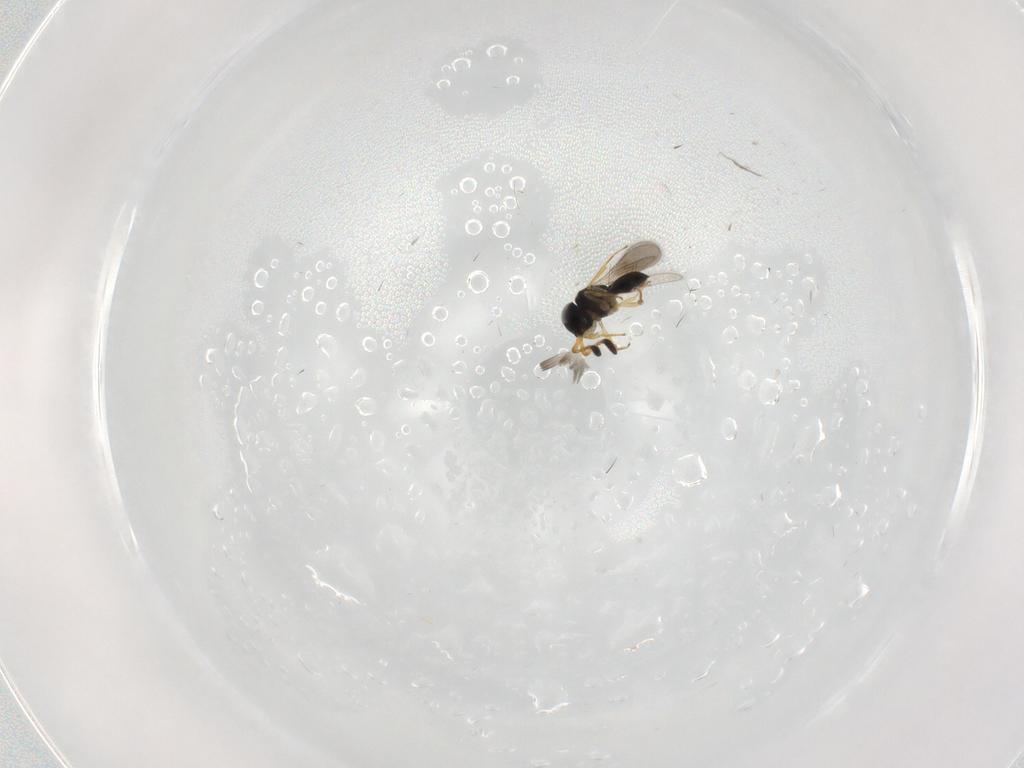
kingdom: Animalia
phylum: Arthropoda
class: Insecta
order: Hymenoptera
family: Scelionidae
